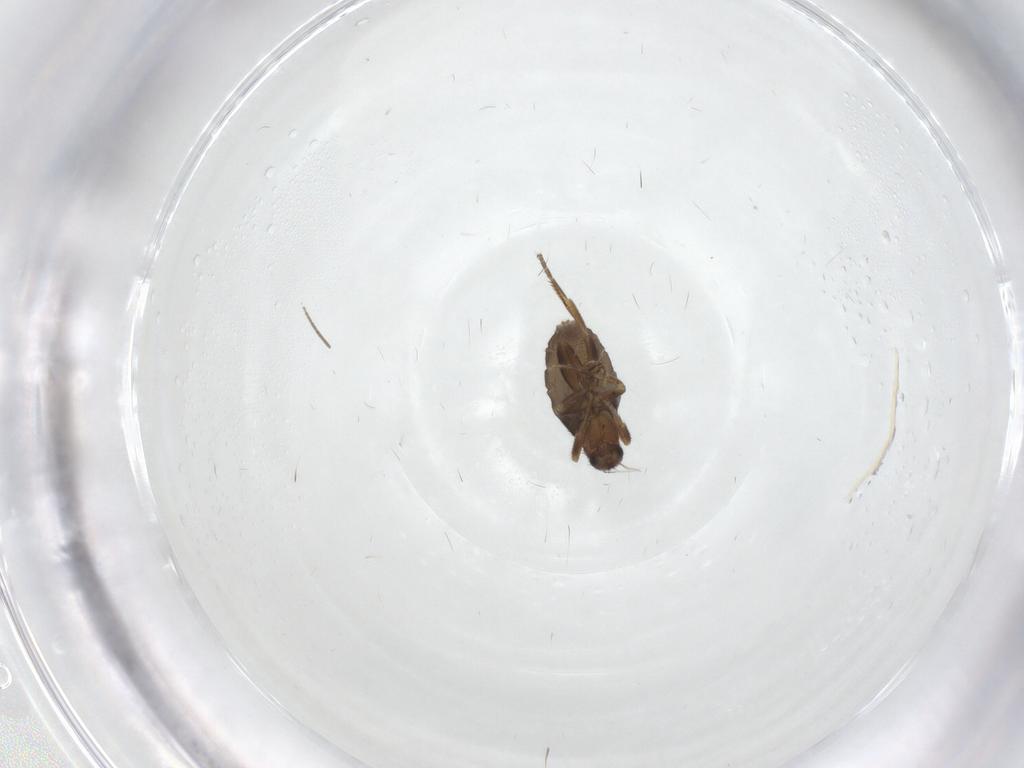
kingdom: Animalia
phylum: Arthropoda
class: Insecta
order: Diptera
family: Phoridae
